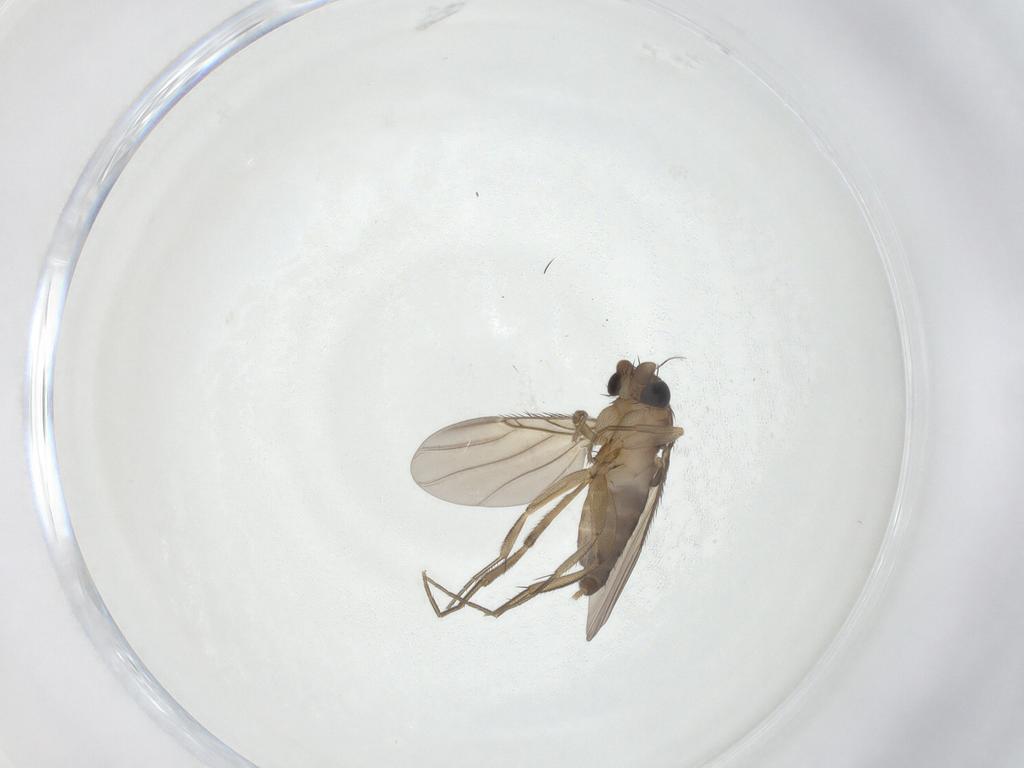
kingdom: Animalia
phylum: Arthropoda
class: Insecta
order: Diptera
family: Phoridae
